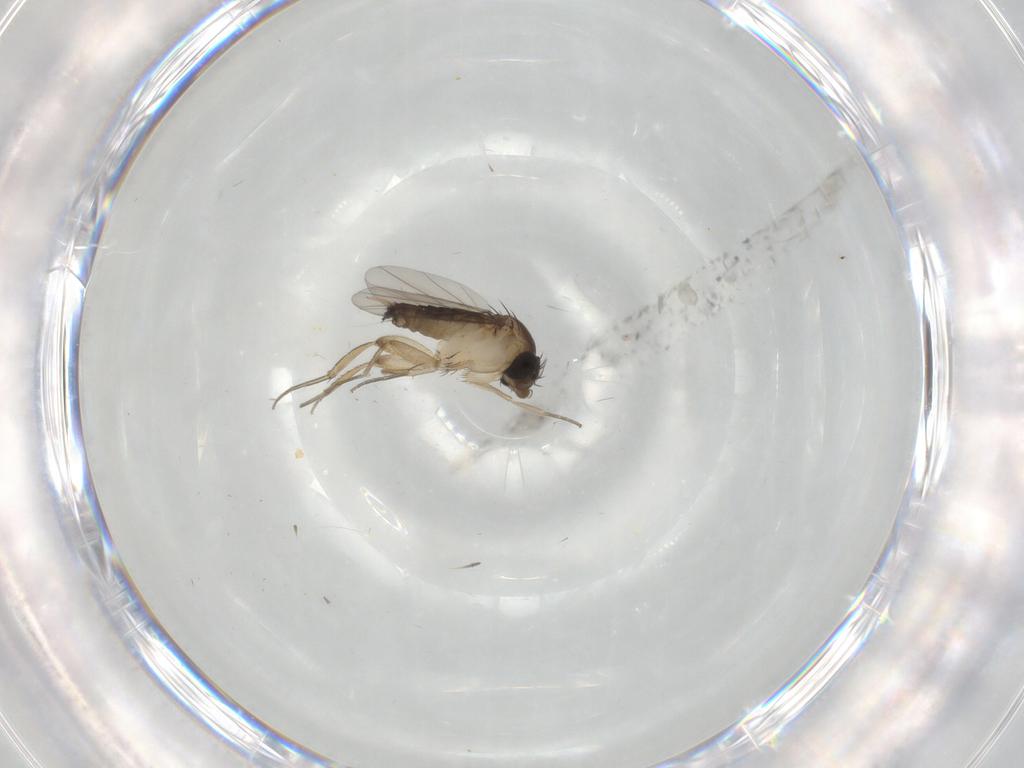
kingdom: Animalia
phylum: Arthropoda
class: Insecta
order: Diptera
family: Phoridae
